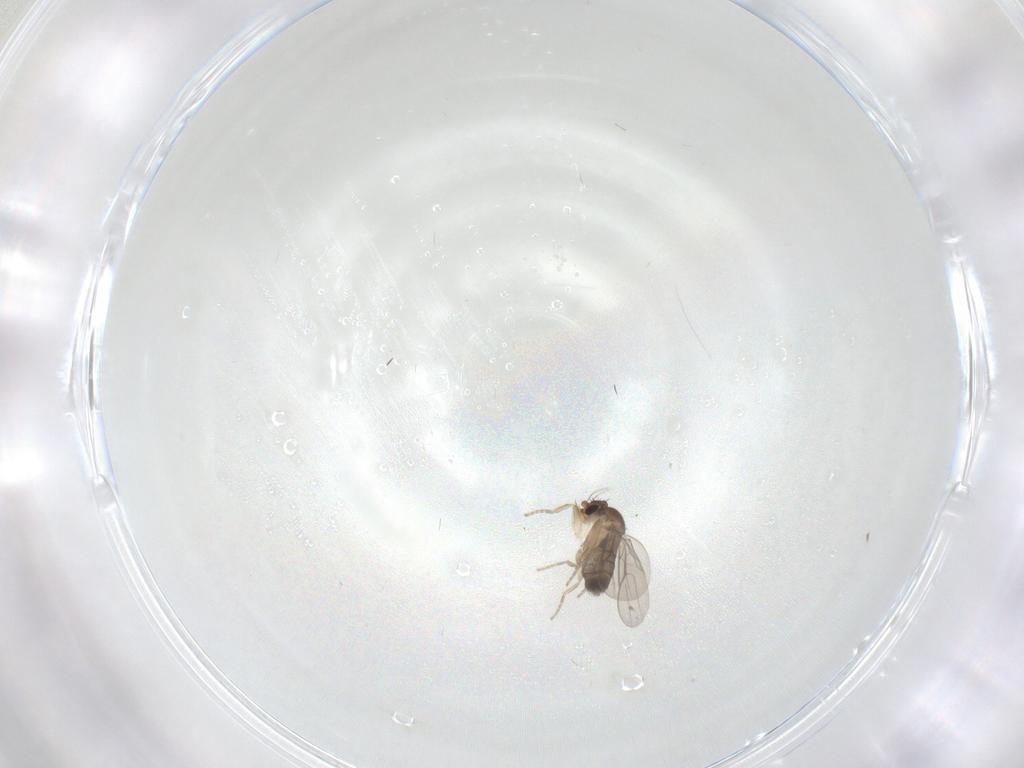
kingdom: Animalia
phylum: Arthropoda
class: Insecta
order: Diptera
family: Phoridae
